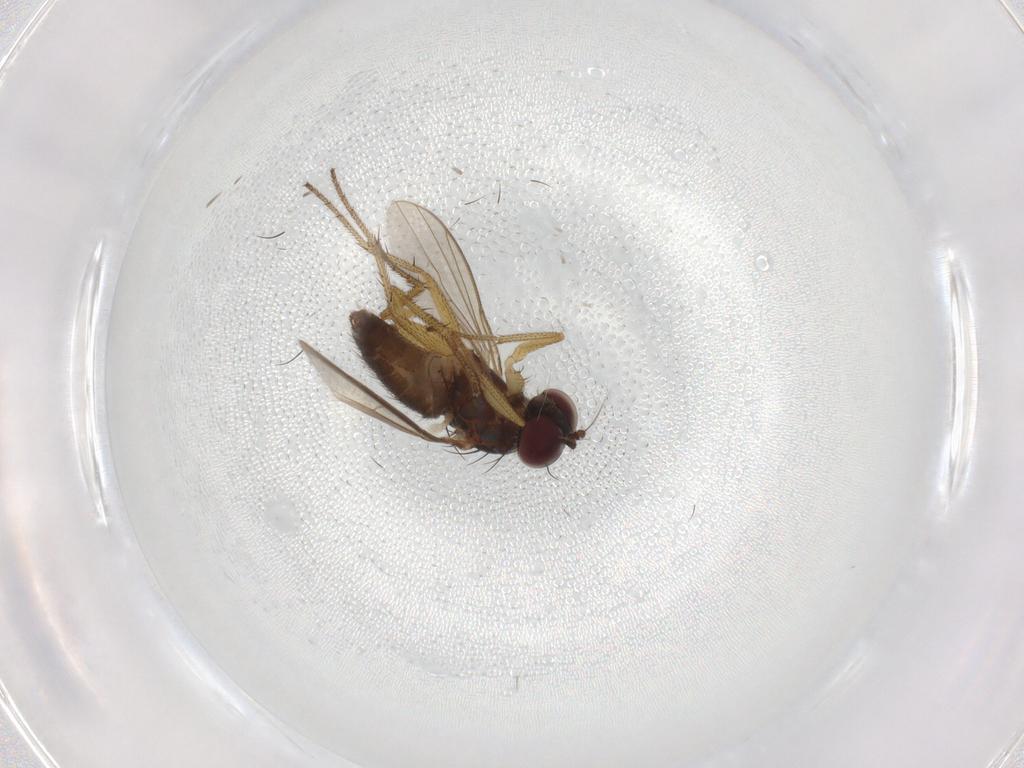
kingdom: Animalia
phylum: Arthropoda
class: Insecta
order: Diptera
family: Dolichopodidae
